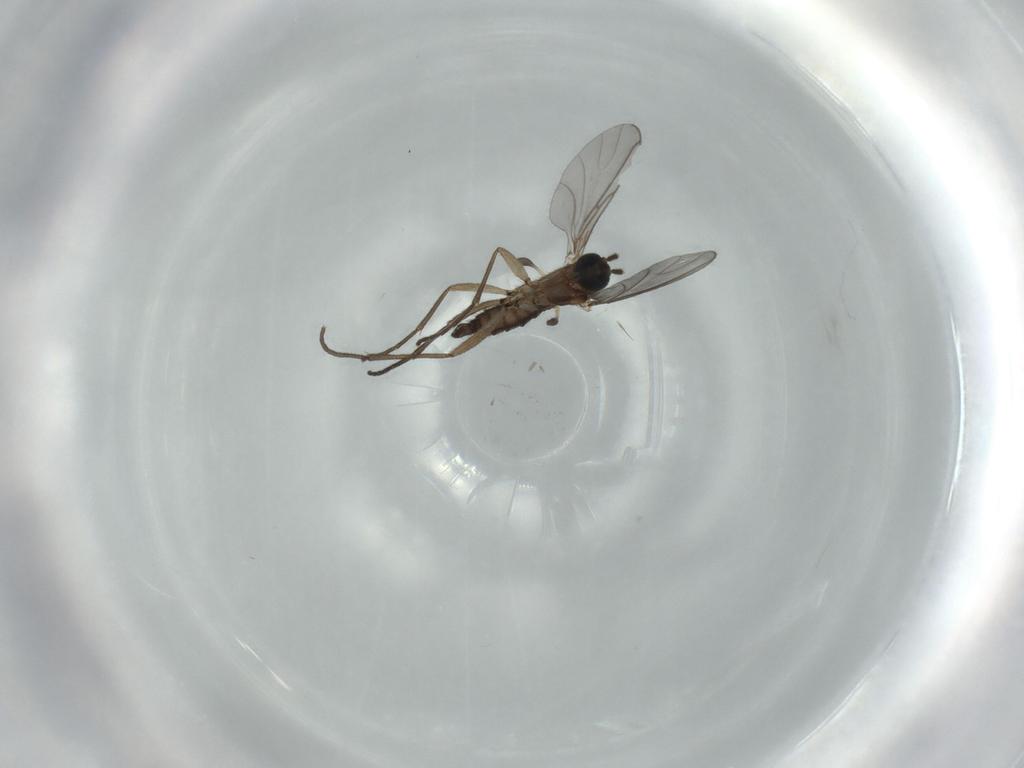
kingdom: Animalia
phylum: Arthropoda
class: Insecta
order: Diptera
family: Sciaridae
